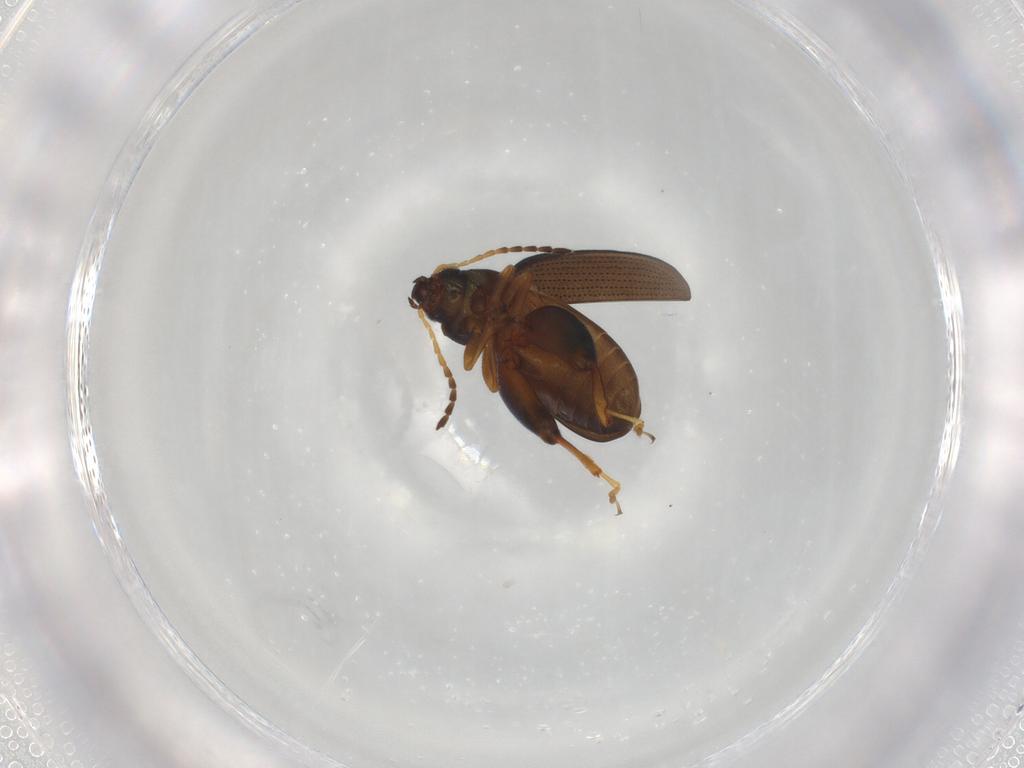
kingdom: Animalia
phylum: Arthropoda
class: Insecta
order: Coleoptera
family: Chrysomelidae
